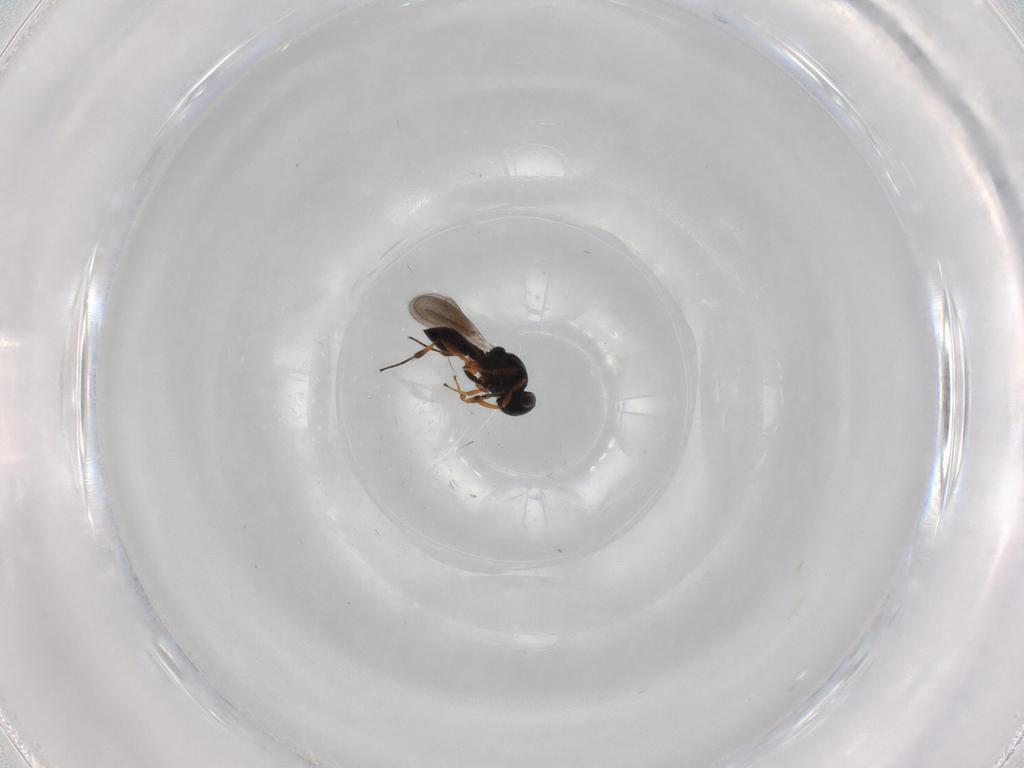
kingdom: Animalia
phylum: Arthropoda
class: Insecta
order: Hymenoptera
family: Platygastridae
